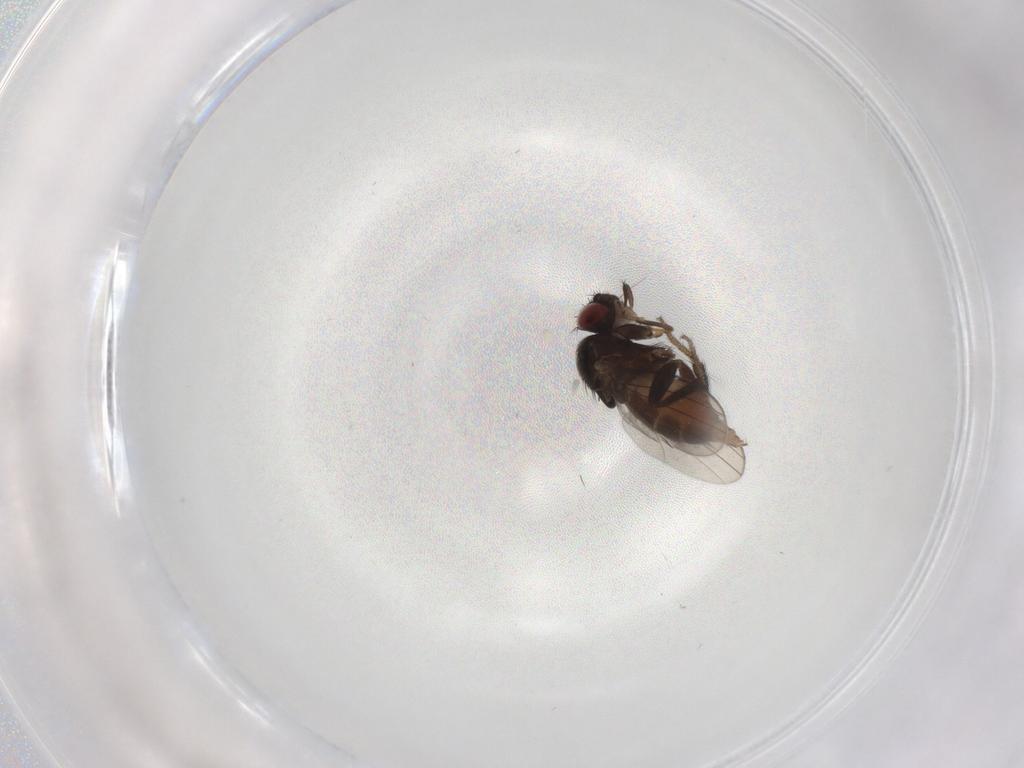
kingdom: Animalia
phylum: Arthropoda
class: Insecta
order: Diptera
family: Milichiidae
